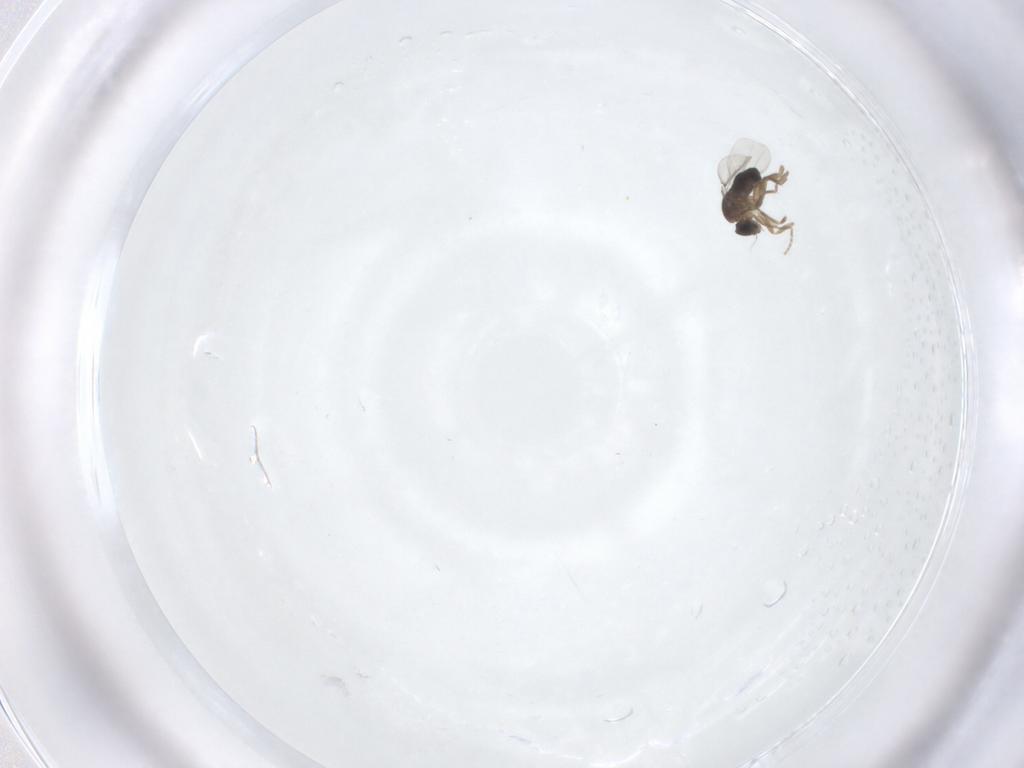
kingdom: Animalia
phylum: Arthropoda
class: Insecta
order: Diptera
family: Phoridae
